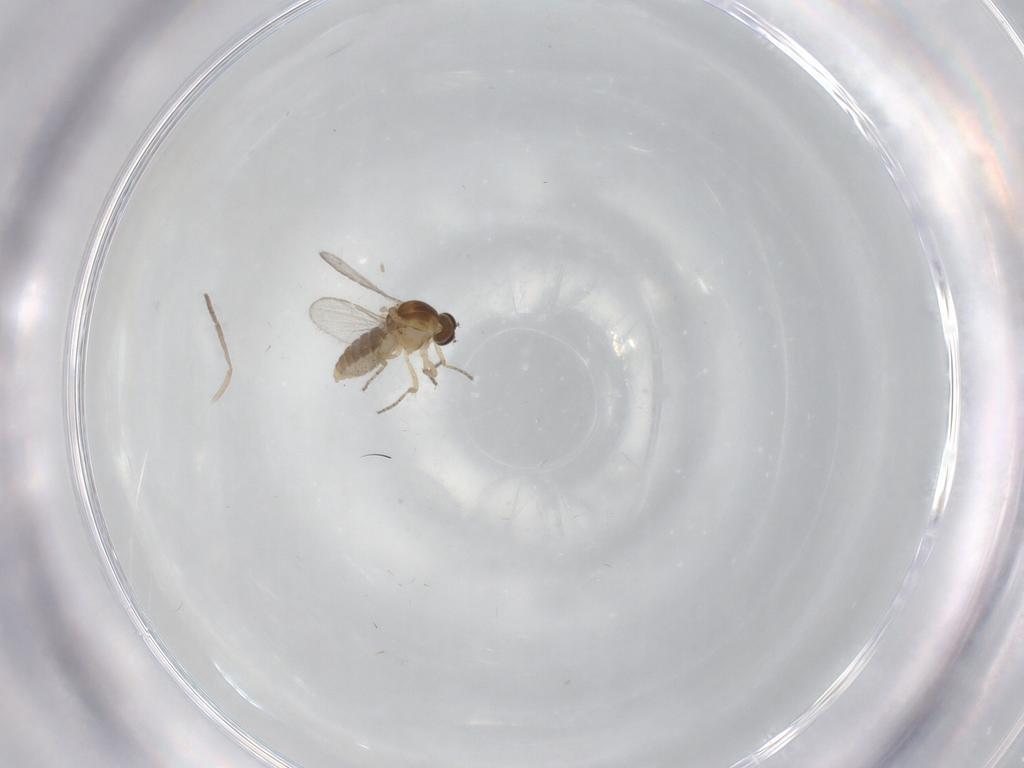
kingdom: Animalia
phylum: Arthropoda
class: Insecta
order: Diptera
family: Ceratopogonidae
